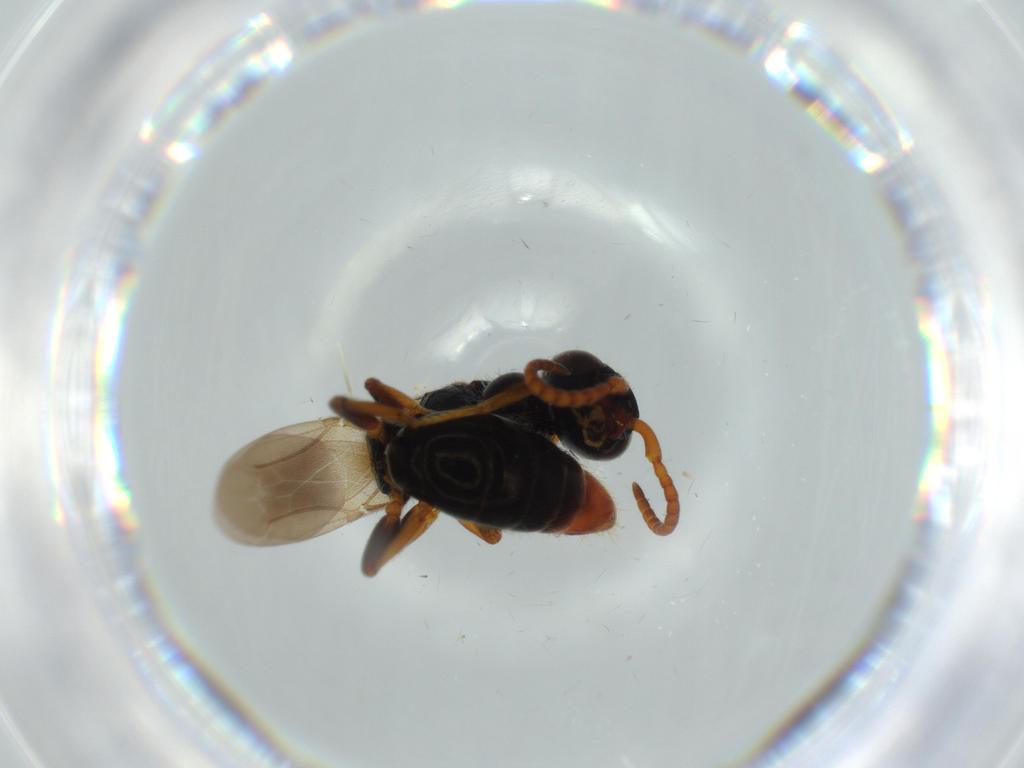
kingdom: Animalia
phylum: Arthropoda
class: Insecta
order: Hymenoptera
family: Bethylidae
